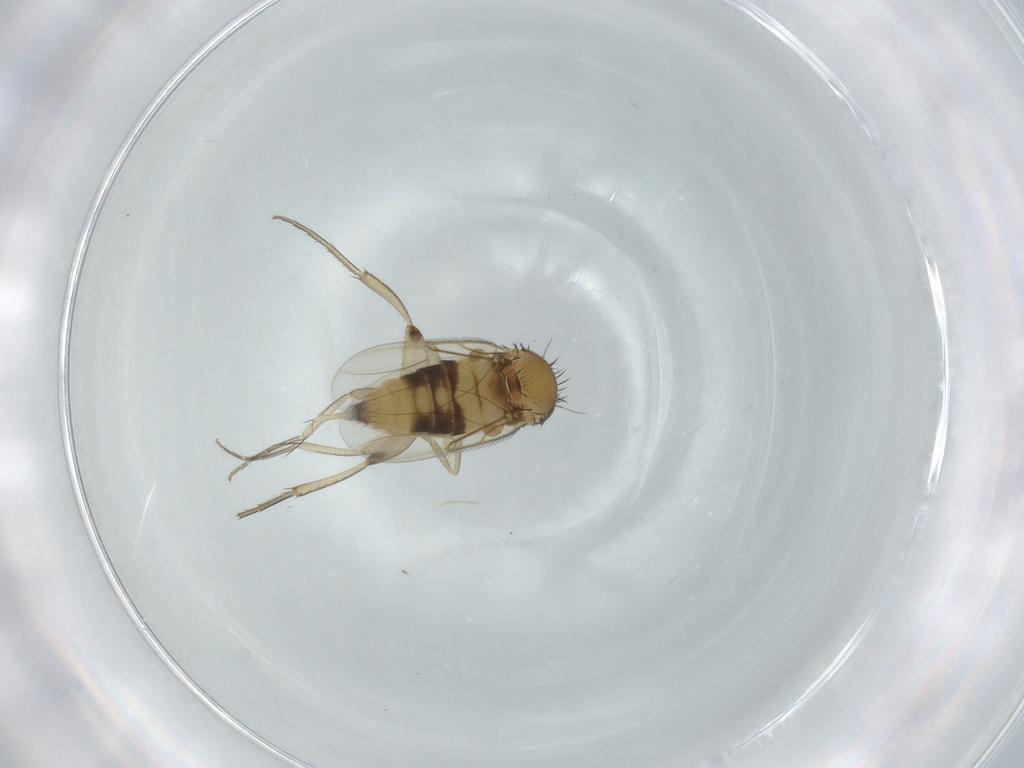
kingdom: Animalia
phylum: Arthropoda
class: Insecta
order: Diptera
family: Phoridae
